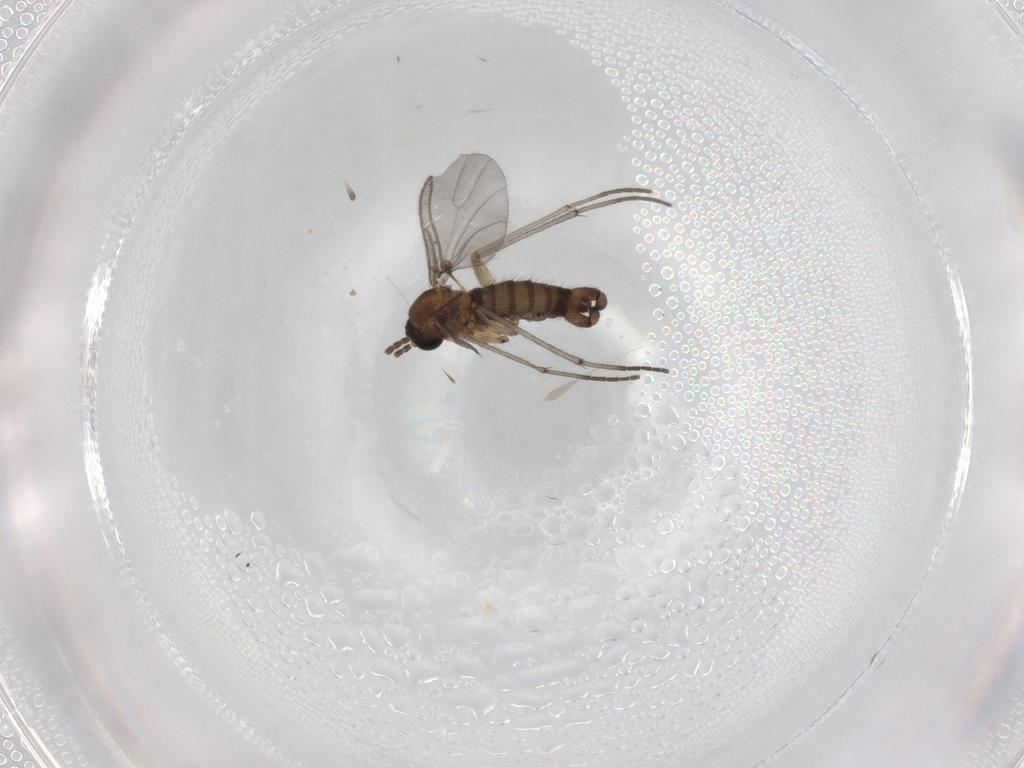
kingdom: Animalia
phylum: Arthropoda
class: Insecta
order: Diptera
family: Sciaridae
